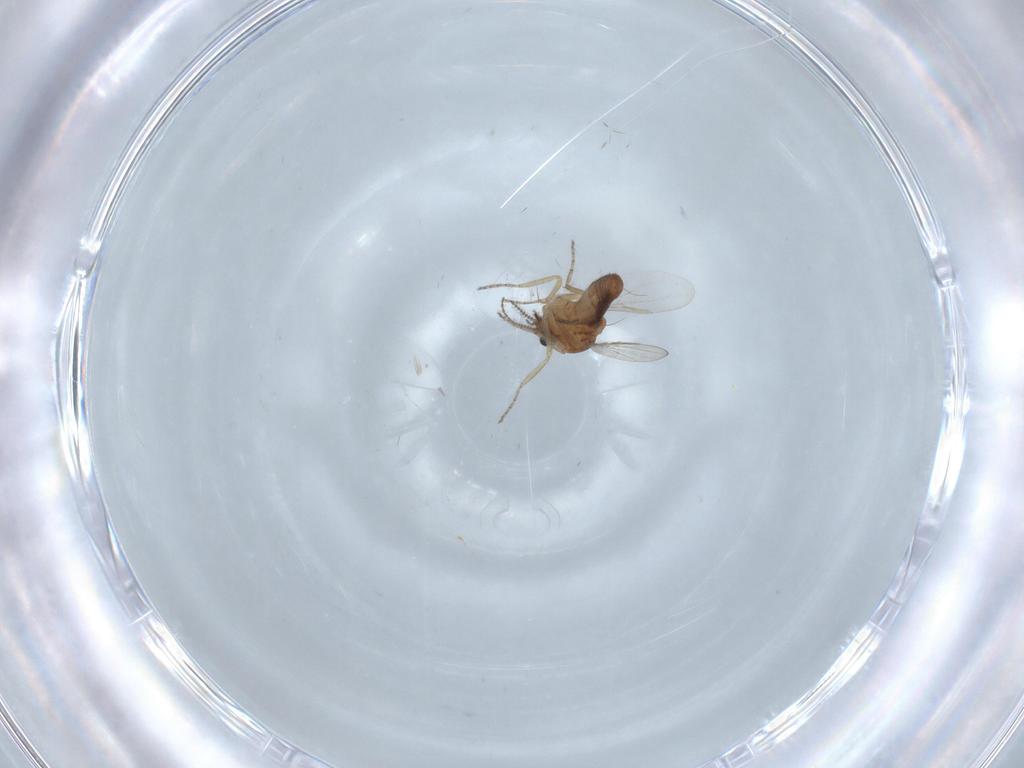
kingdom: Animalia
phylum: Arthropoda
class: Insecta
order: Diptera
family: Ceratopogonidae
